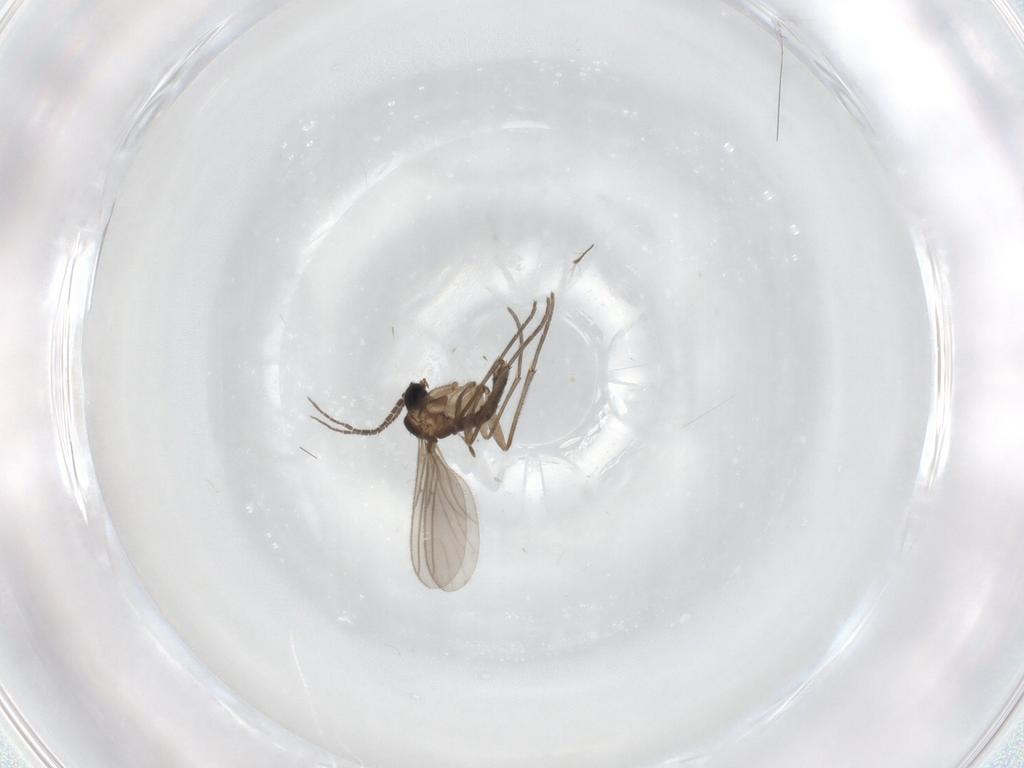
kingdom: Animalia
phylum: Arthropoda
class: Insecta
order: Diptera
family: Sciaridae
